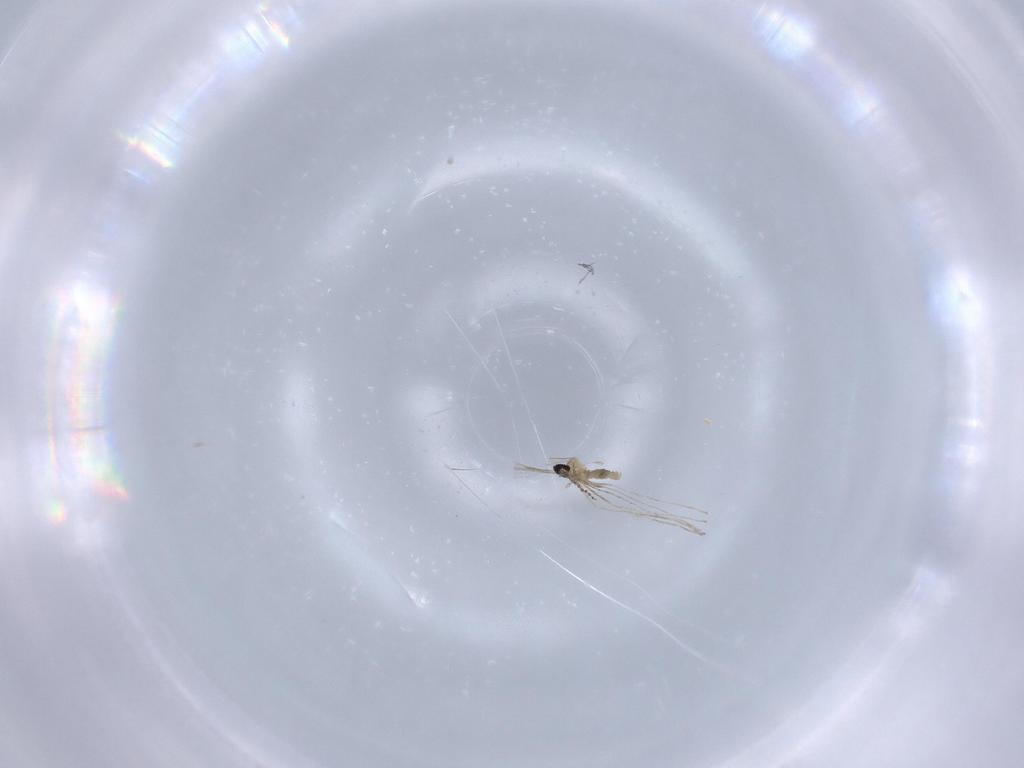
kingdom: Animalia
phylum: Arthropoda
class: Insecta
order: Diptera
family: Cecidomyiidae
